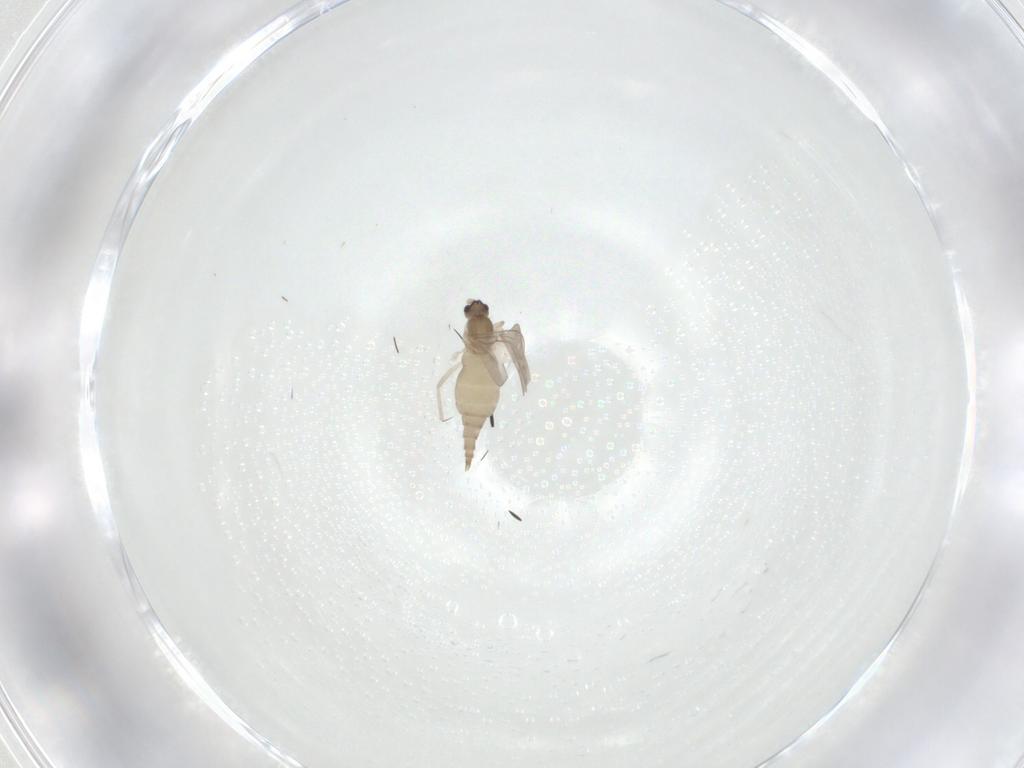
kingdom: Animalia
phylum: Arthropoda
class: Insecta
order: Diptera
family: Cecidomyiidae
